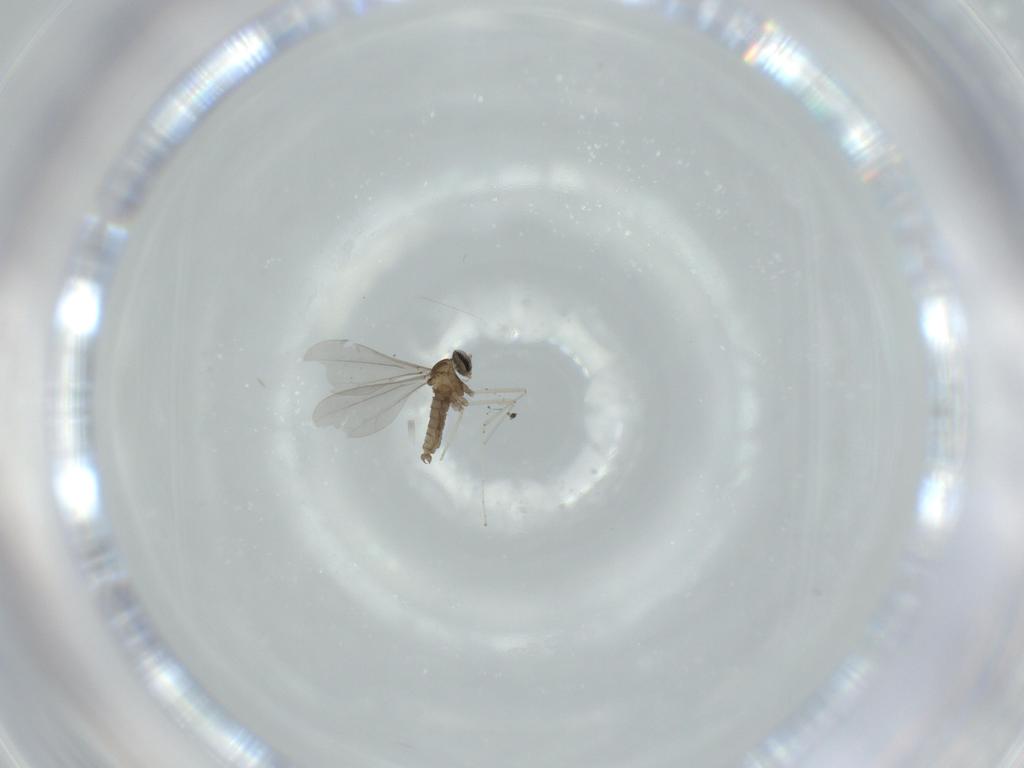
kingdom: Animalia
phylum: Arthropoda
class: Insecta
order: Diptera
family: Cecidomyiidae
